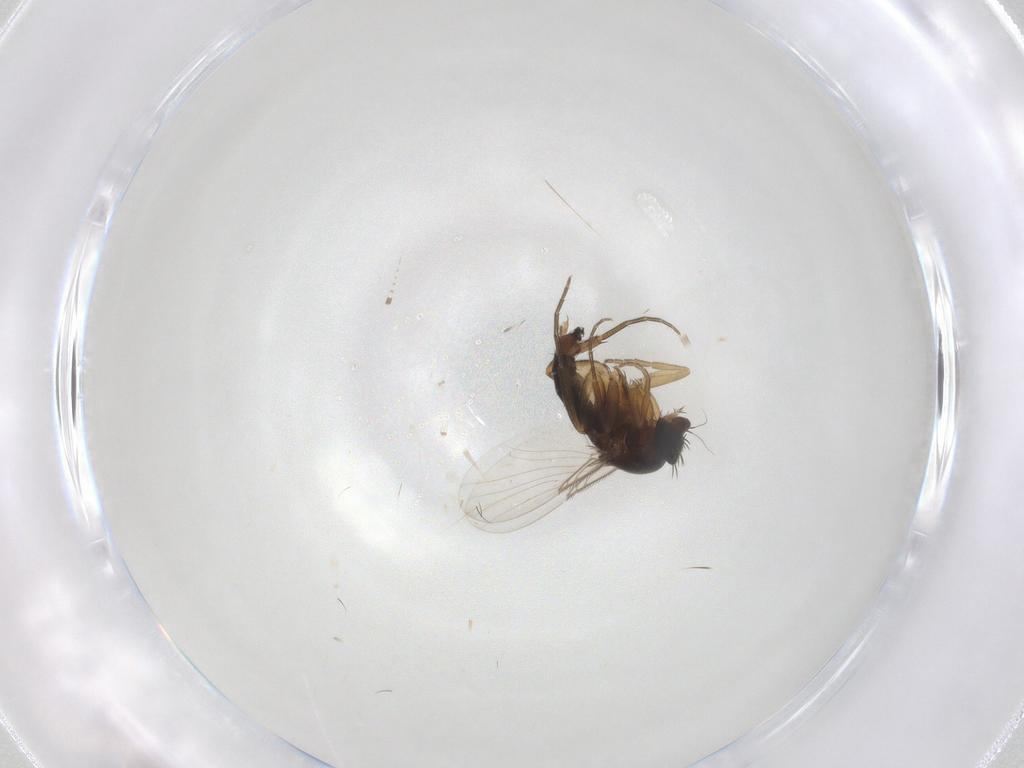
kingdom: Animalia
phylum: Arthropoda
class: Insecta
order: Diptera
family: Phoridae
